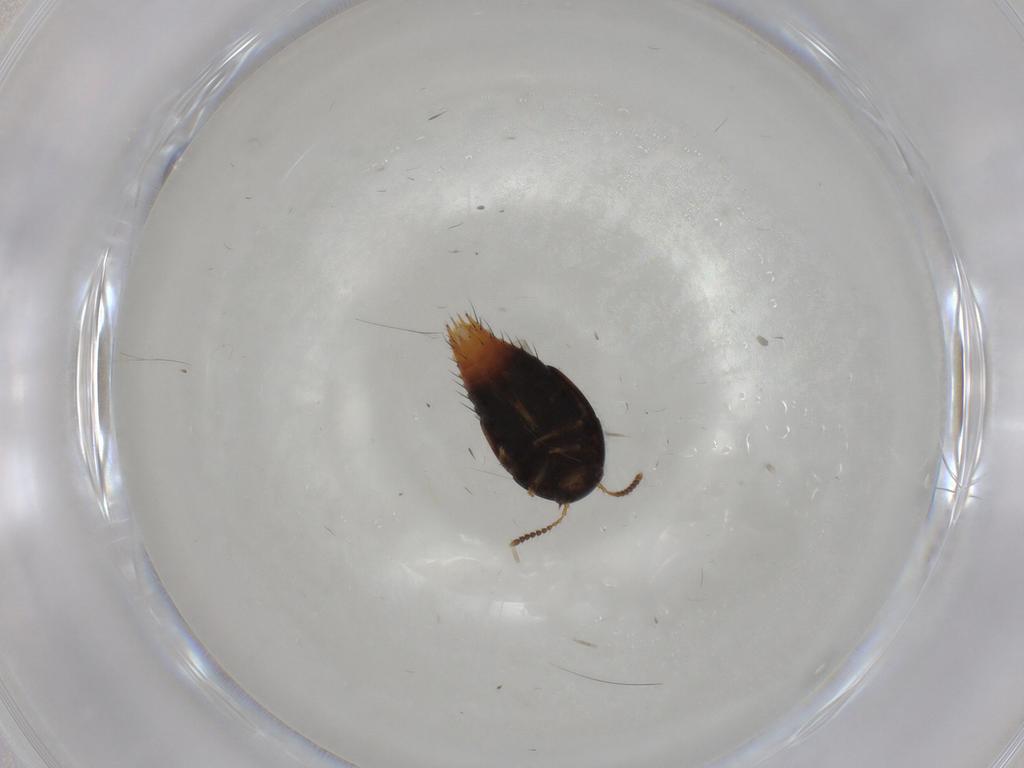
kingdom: Animalia
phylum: Arthropoda
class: Insecta
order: Coleoptera
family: Staphylinidae
